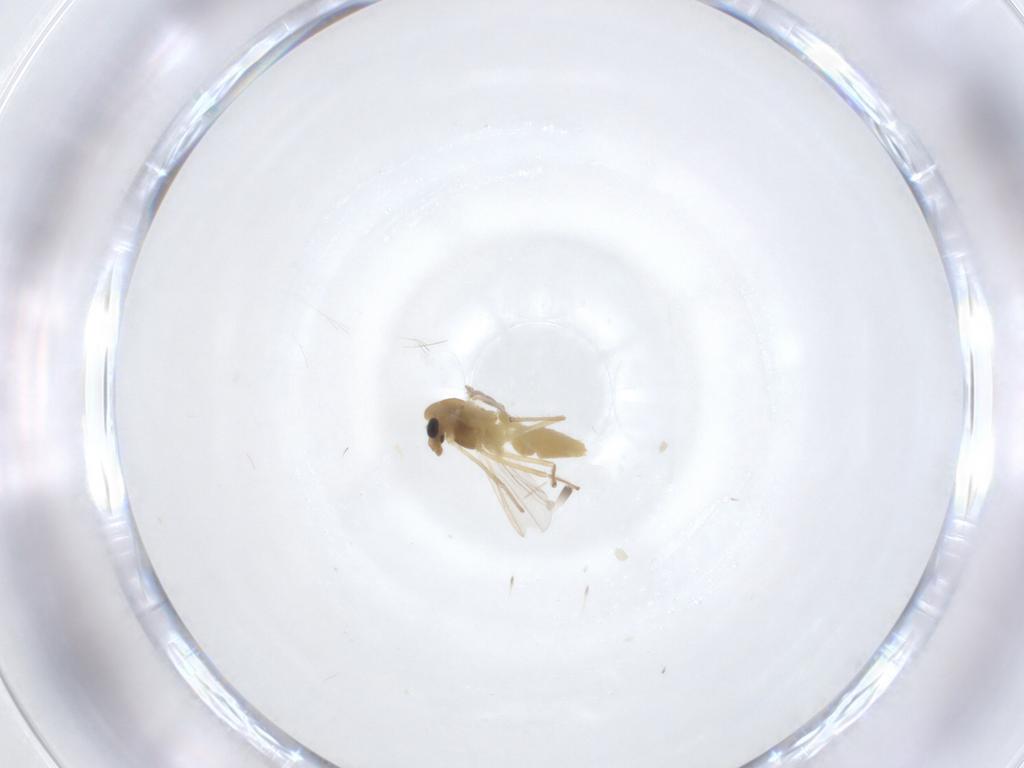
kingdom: Animalia
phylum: Arthropoda
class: Insecta
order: Diptera
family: Chironomidae
